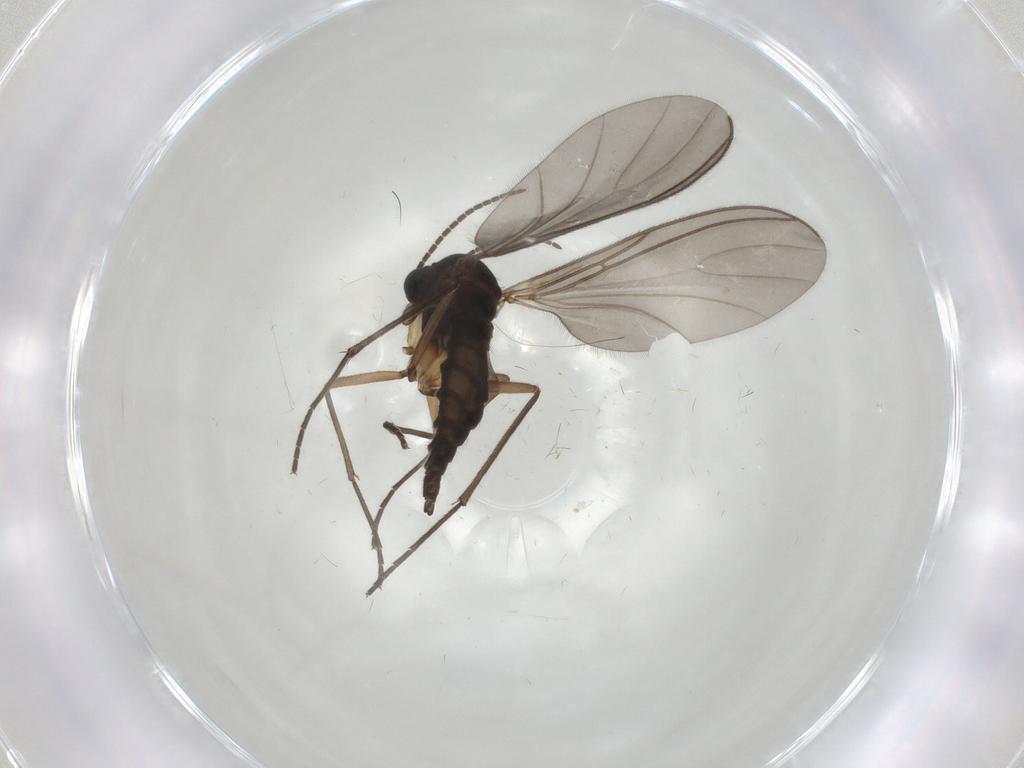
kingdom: Animalia
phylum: Arthropoda
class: Insecta
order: Diptera
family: Sciaridae
